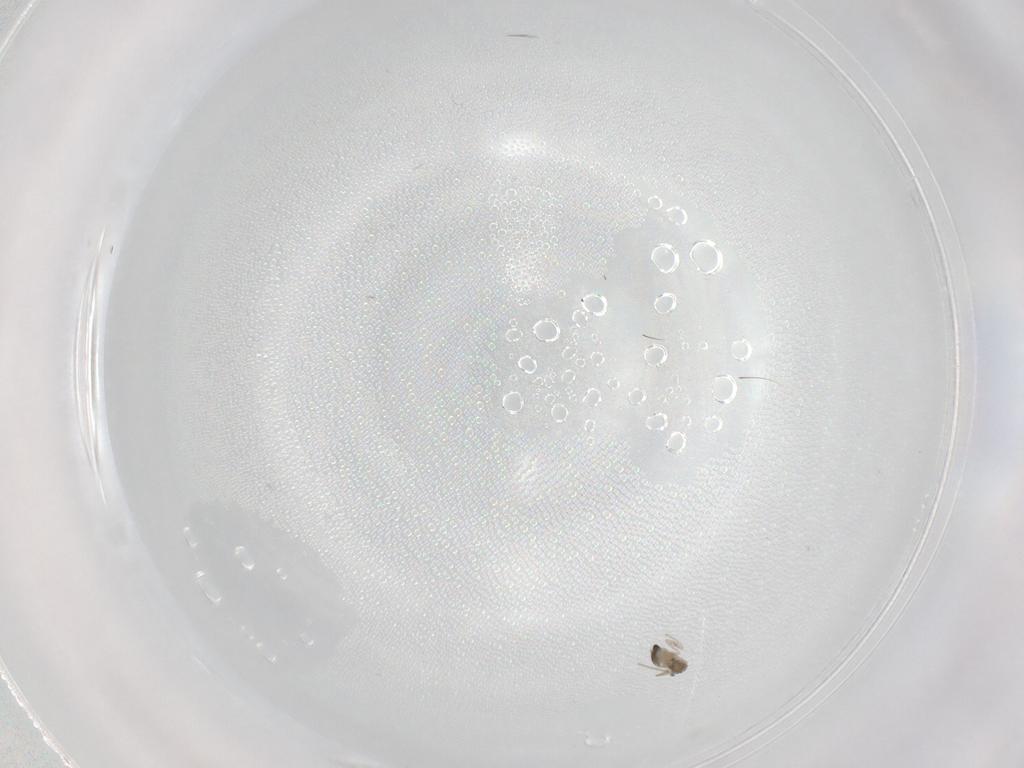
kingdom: Animalia
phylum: Arthropoda
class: Insecta
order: Diptera
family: Cecidomyiidae
